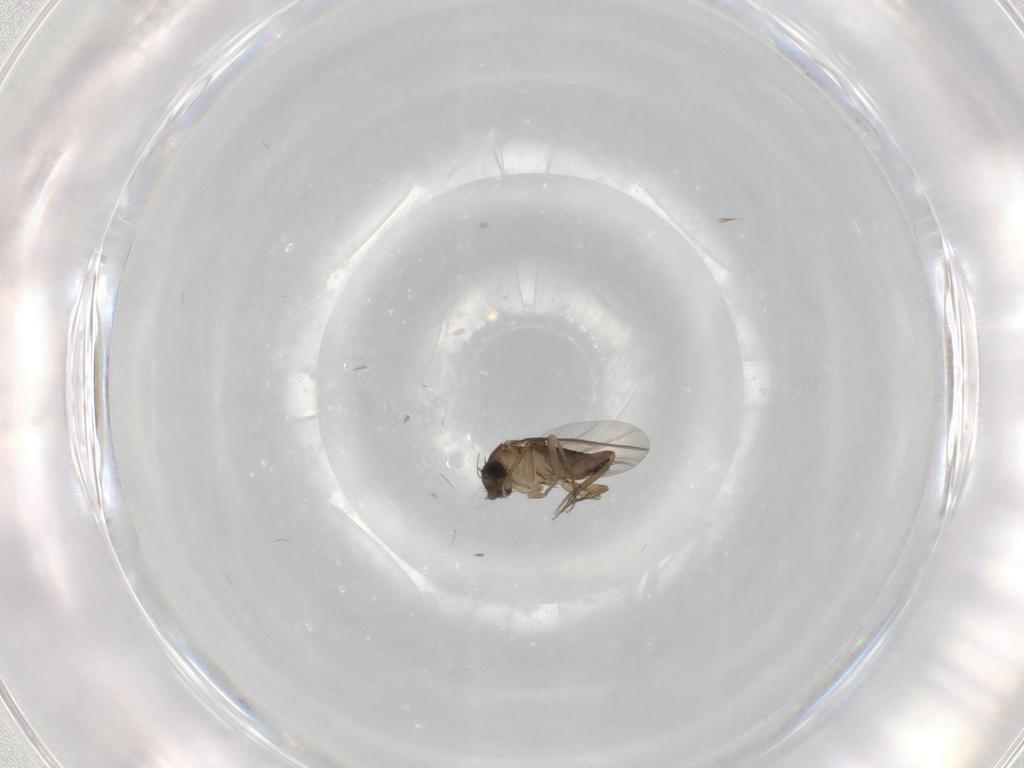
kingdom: Animalia
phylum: Arthropoda
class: Insecta
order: Diptera
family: Phoridae
